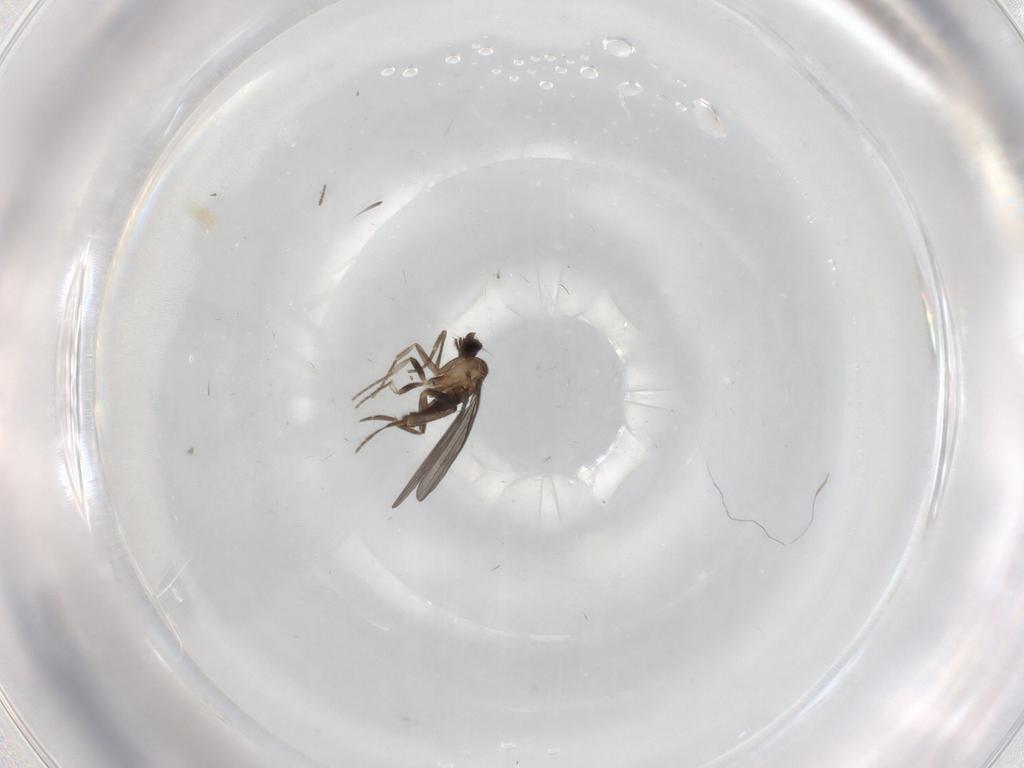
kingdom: Animalia
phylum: Arthropoda
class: Insecta
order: Diptera
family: Phoridae
